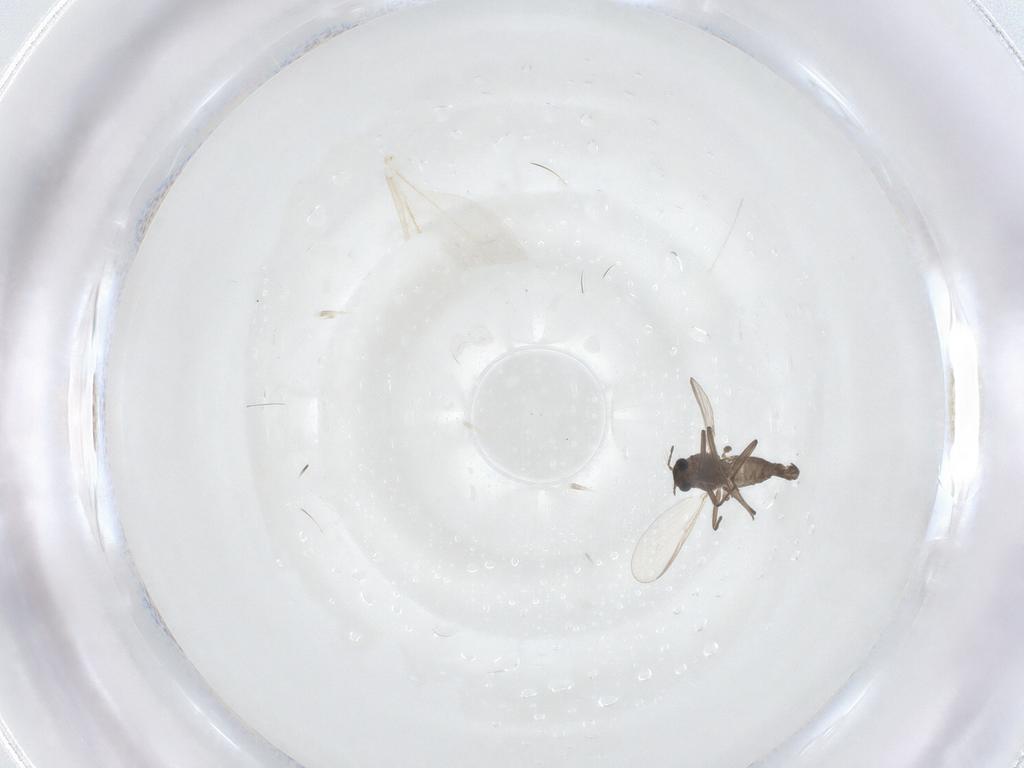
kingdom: Animalia
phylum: Arthropoda
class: Insecta
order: Diptera
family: Chironomidae
